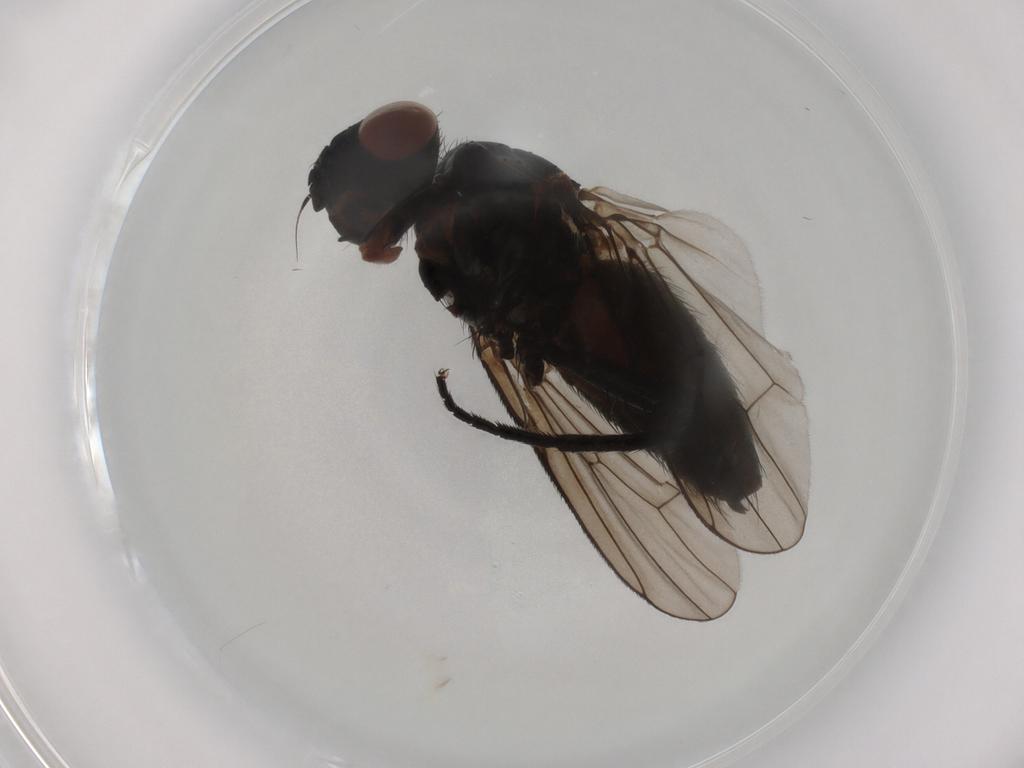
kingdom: Animalia
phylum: Arthropoda
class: Insecta
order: Diptera
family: Anthomyiidae
